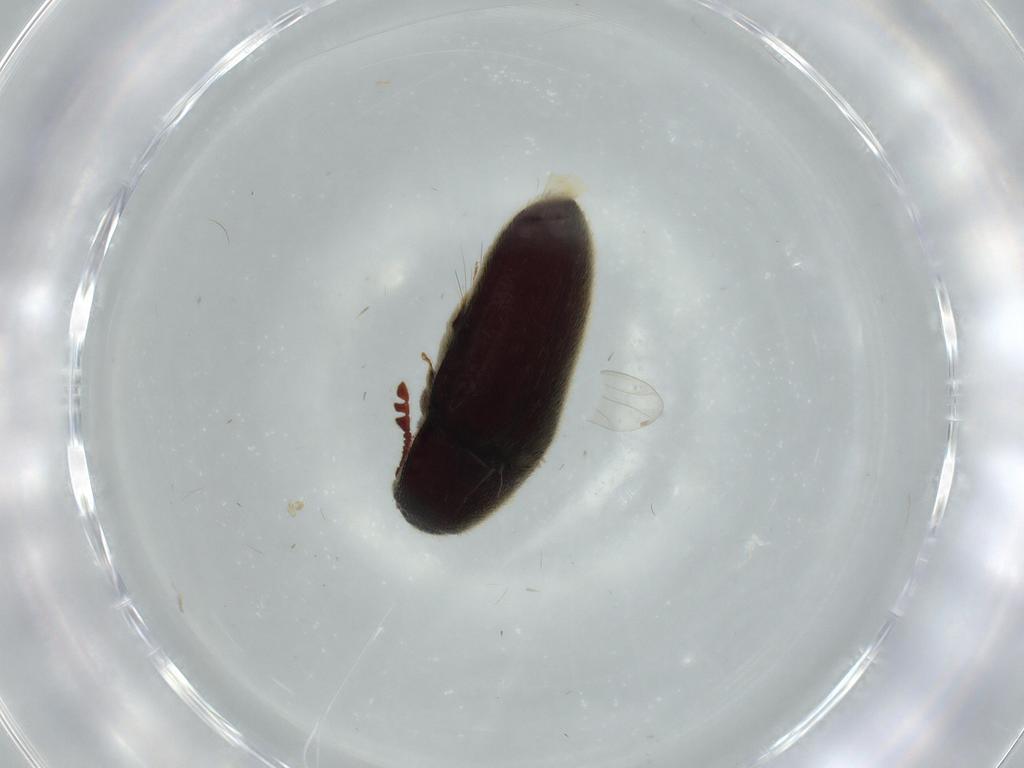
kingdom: Animalia
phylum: Arthropoda
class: Insecta
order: Coleoptera
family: Throscidae
